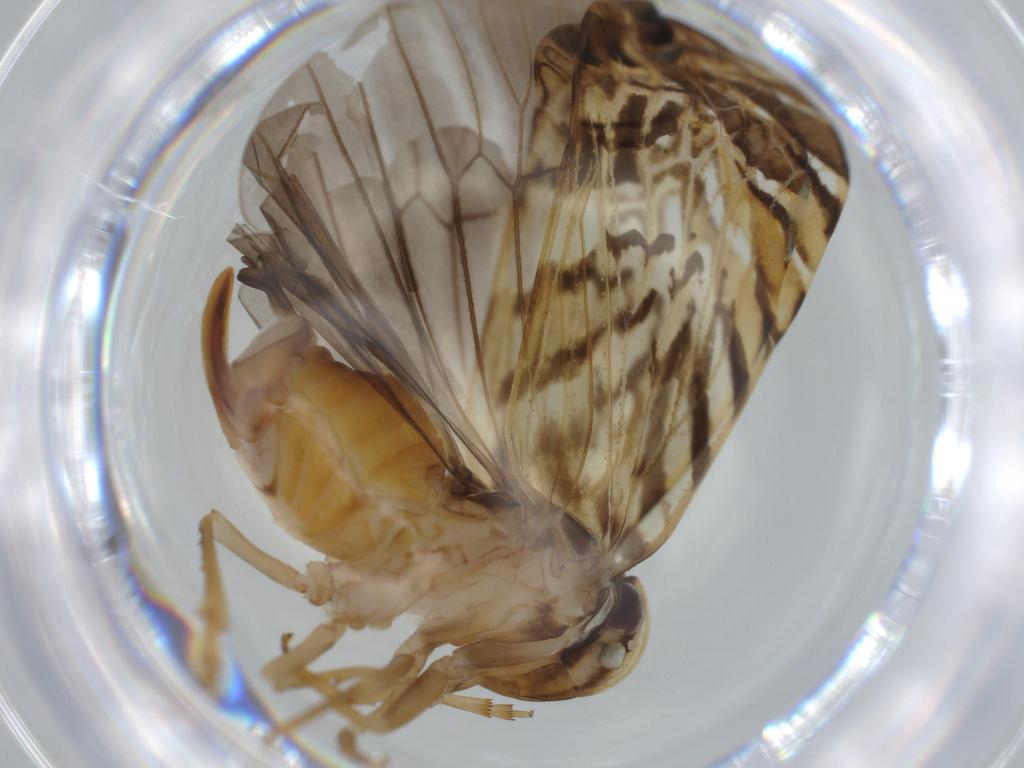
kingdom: Animalia
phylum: Arthropoda
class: Insecta
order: Hemiptera
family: Cixiidae
